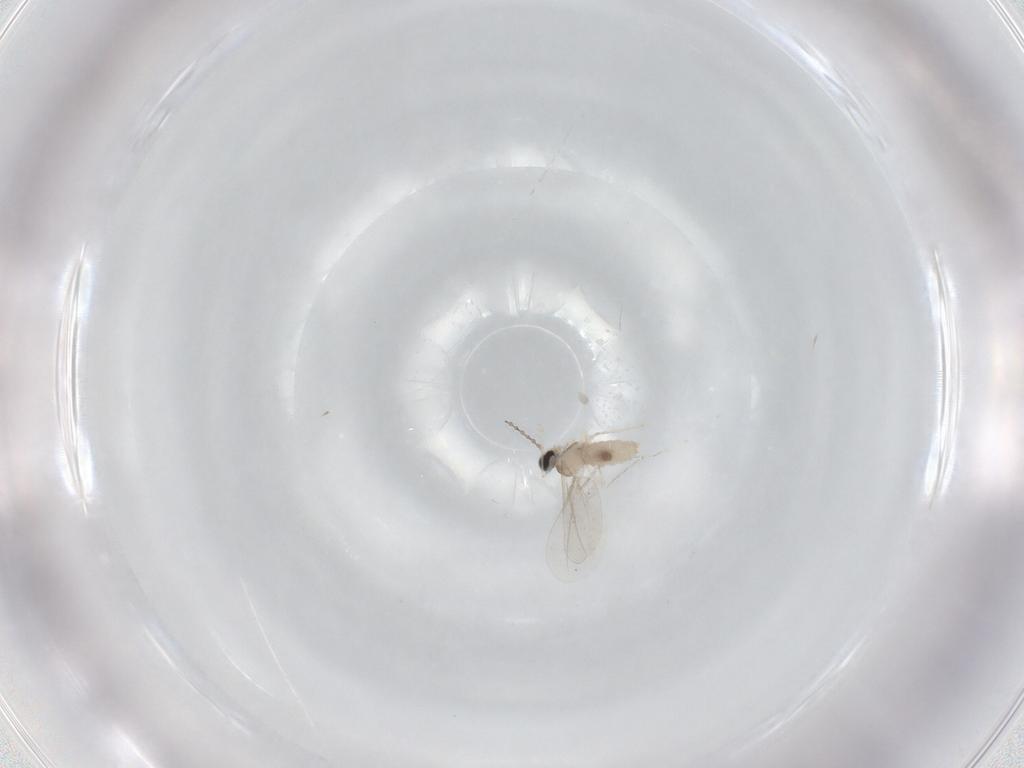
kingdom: Animalia
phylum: Arthropoda
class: Insecta
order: Diptera
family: Cecidomyiidae
